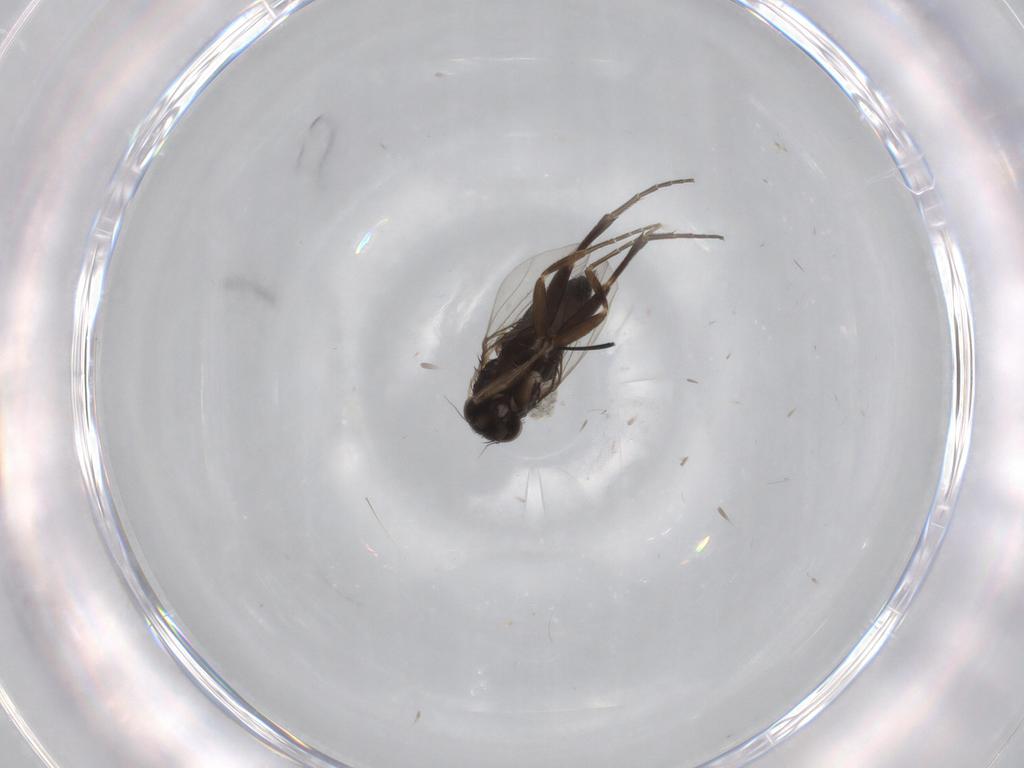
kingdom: Animalia
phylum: Arthropoda
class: Insecta
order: Diptera
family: Phoridae
